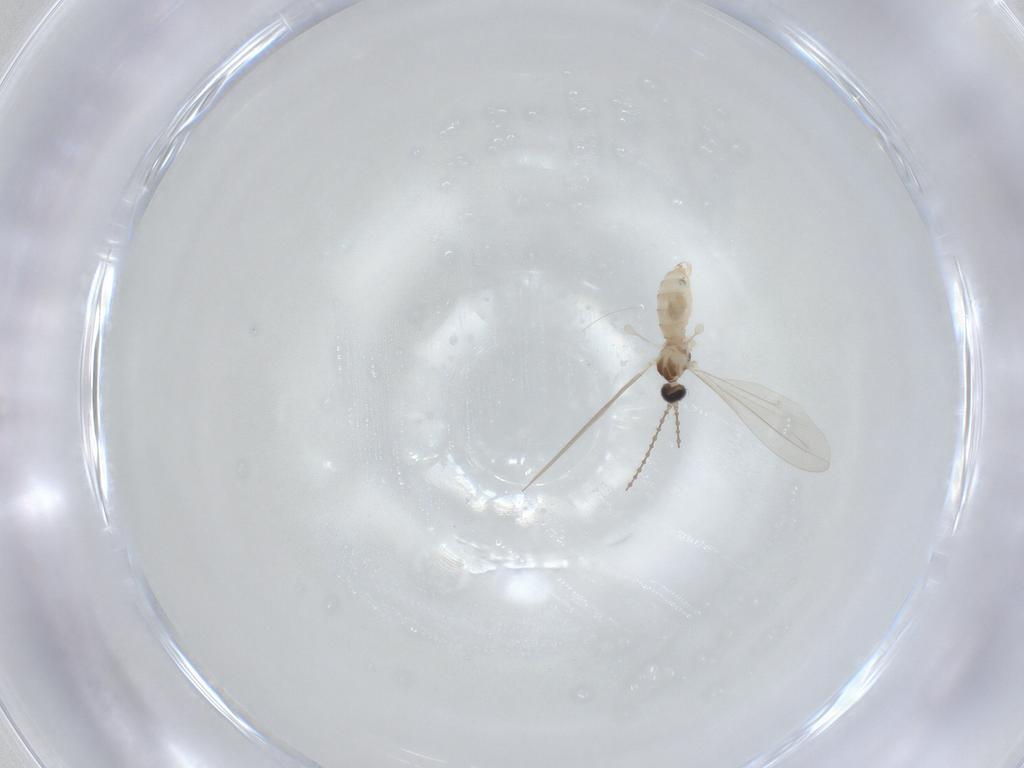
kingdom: Animalia
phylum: Arthropoda
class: Insecta
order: Diptera
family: Cecidomyiidae
